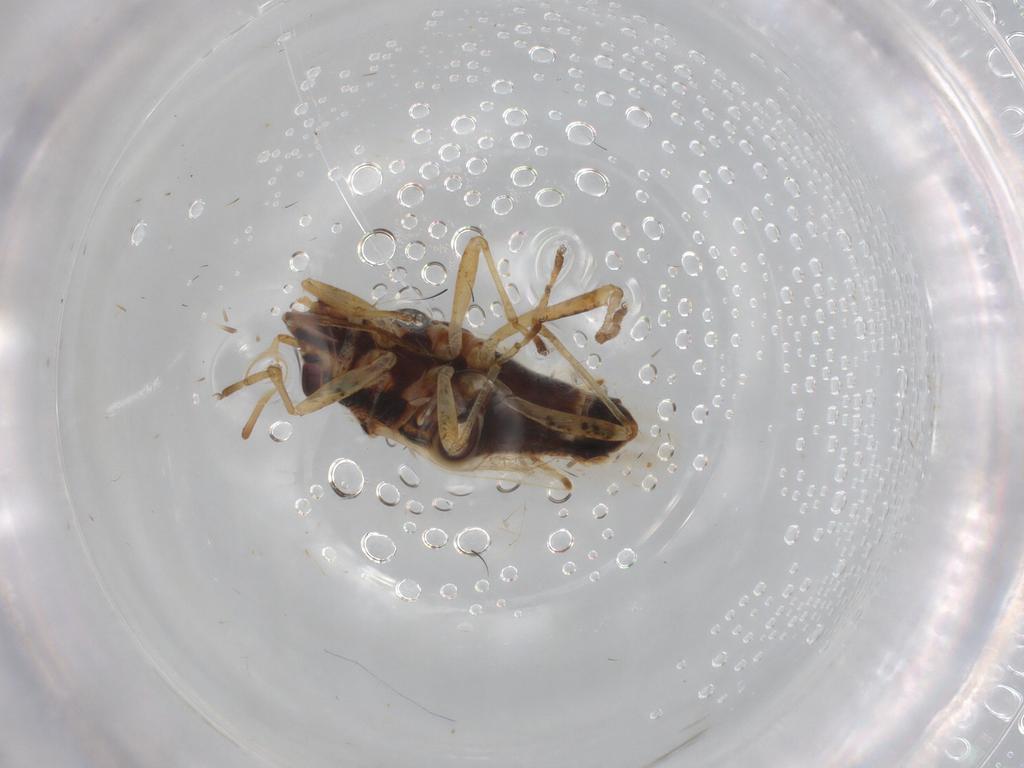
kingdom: Animalia
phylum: Arthropoda
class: Insecta
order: Hemiptera
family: Lygaeidae
